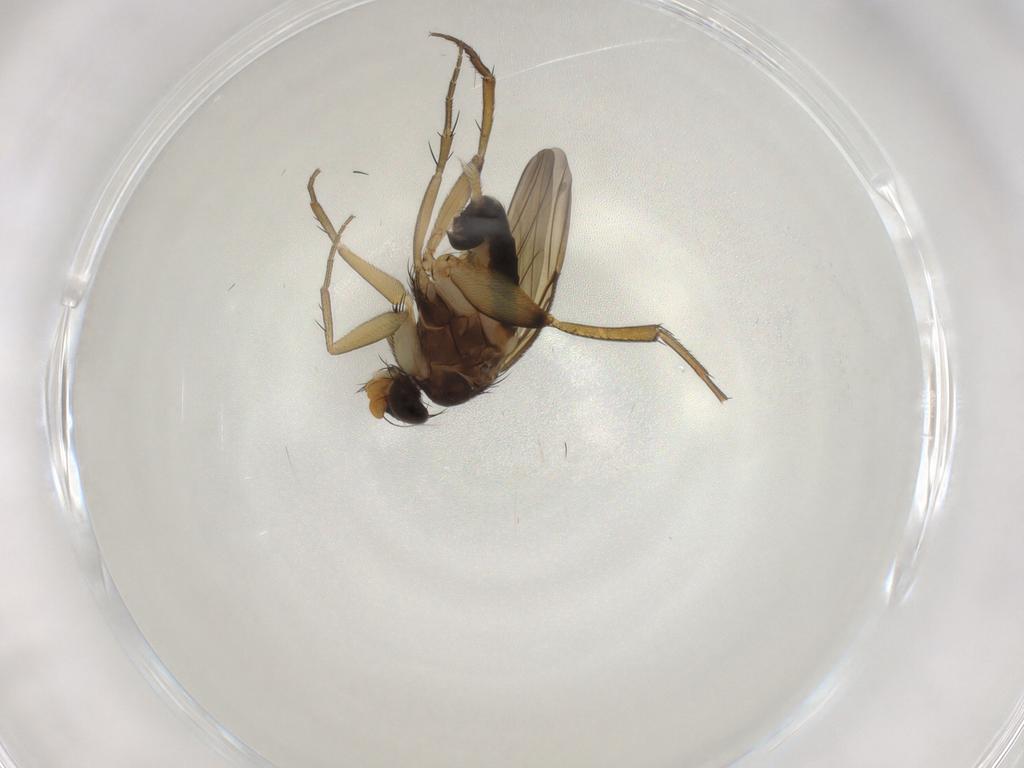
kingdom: Animalia
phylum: Arthropoda
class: Insecta
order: Diptera
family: Phoridae
